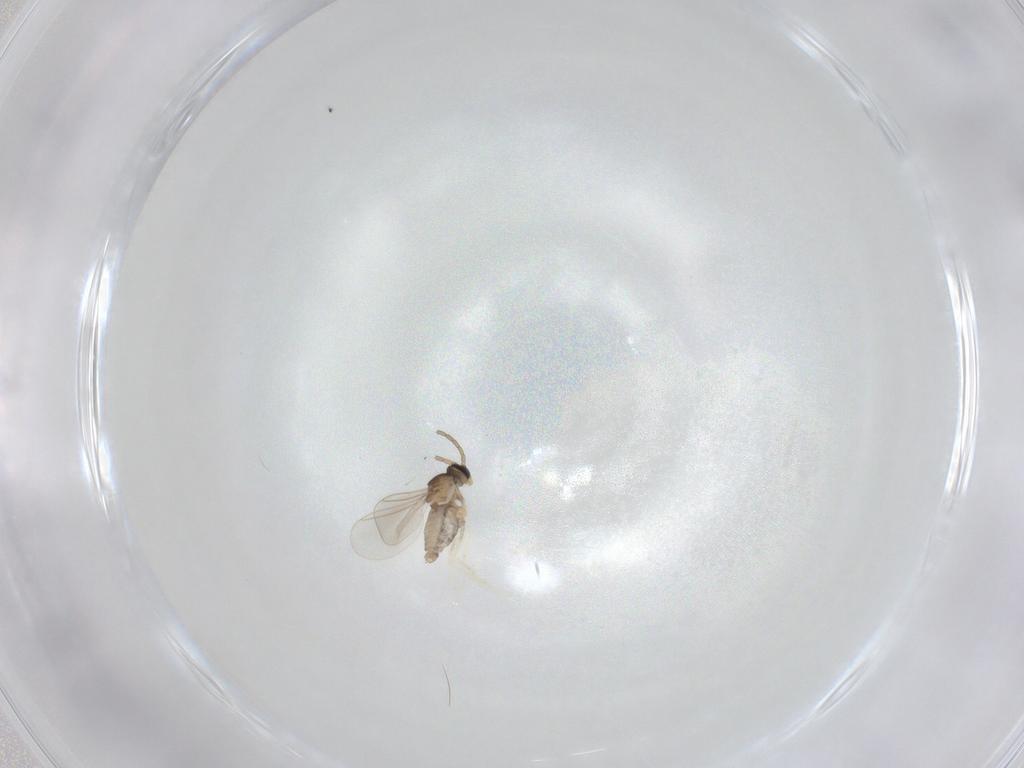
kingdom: Animalia
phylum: Arthropoda
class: Insecta
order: Diptera
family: Cecidomyiidae
